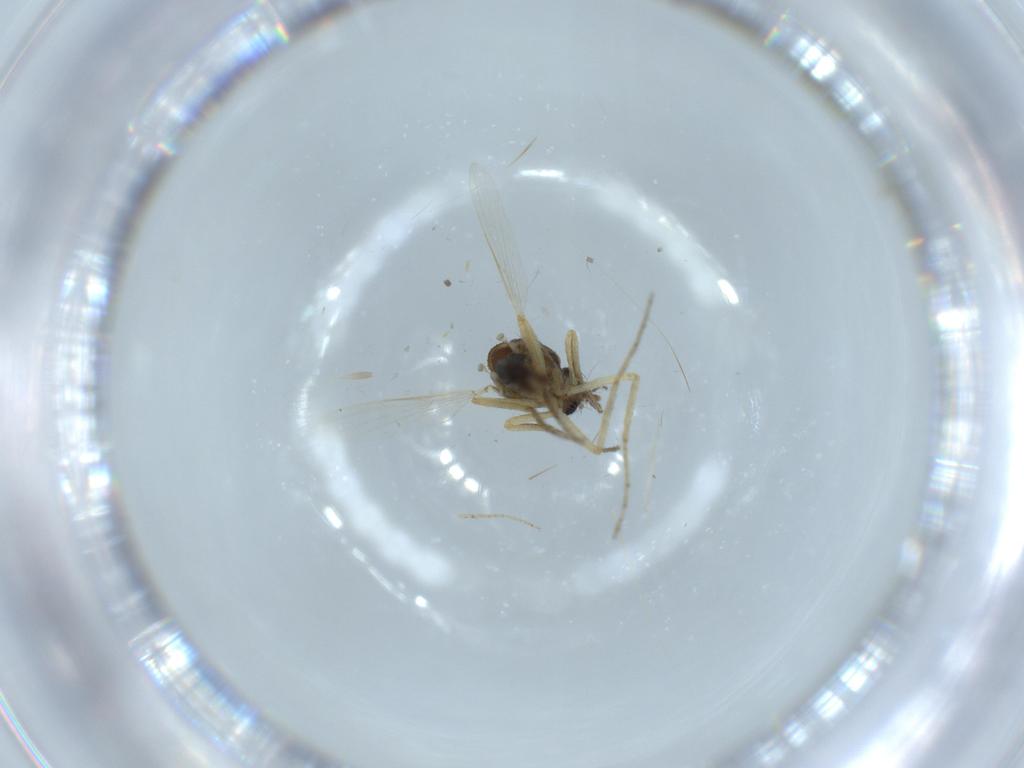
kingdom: Animalia
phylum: Arthropoda
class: Insecta
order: Diptera
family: Ceratopogonidae
